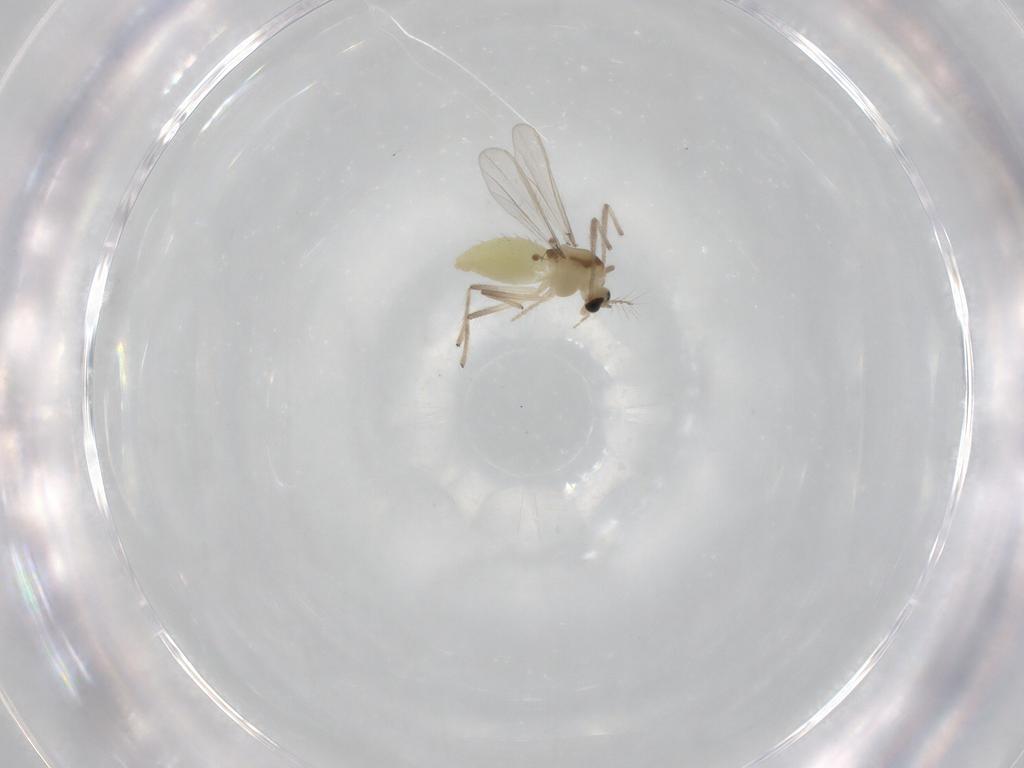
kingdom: Animalia
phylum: Arthropoda
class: Insecta
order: Diptera
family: Chironomidae
